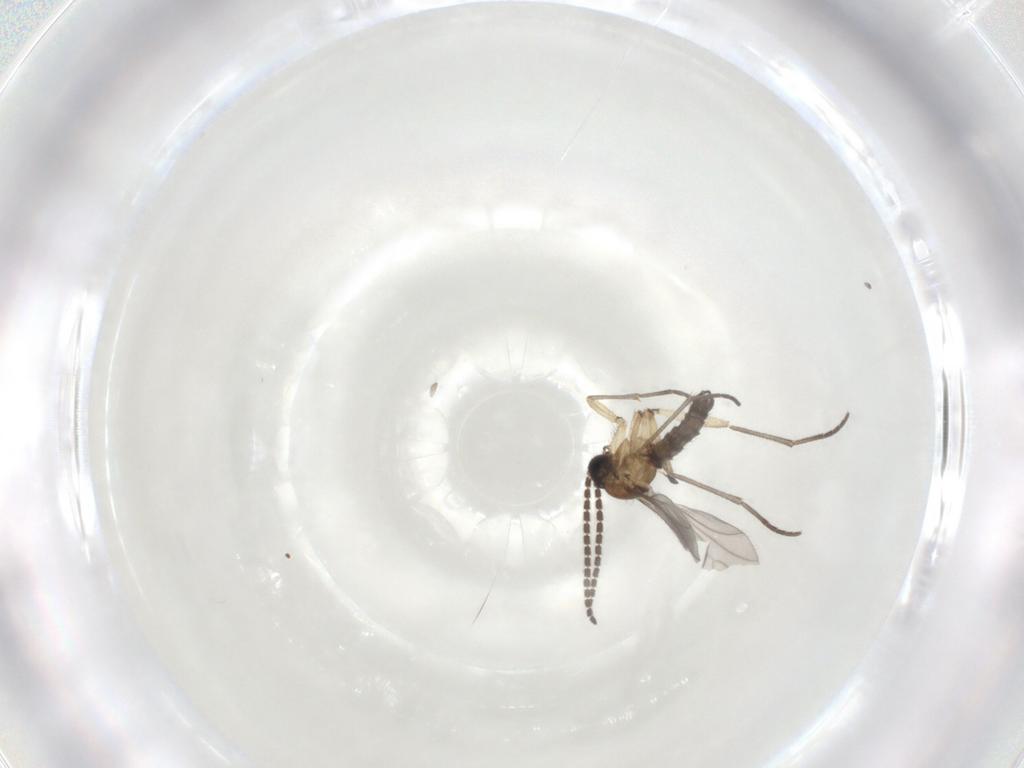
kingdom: Animalia
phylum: Arthropoda
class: Insecta
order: Diptera
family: Sciaridae
